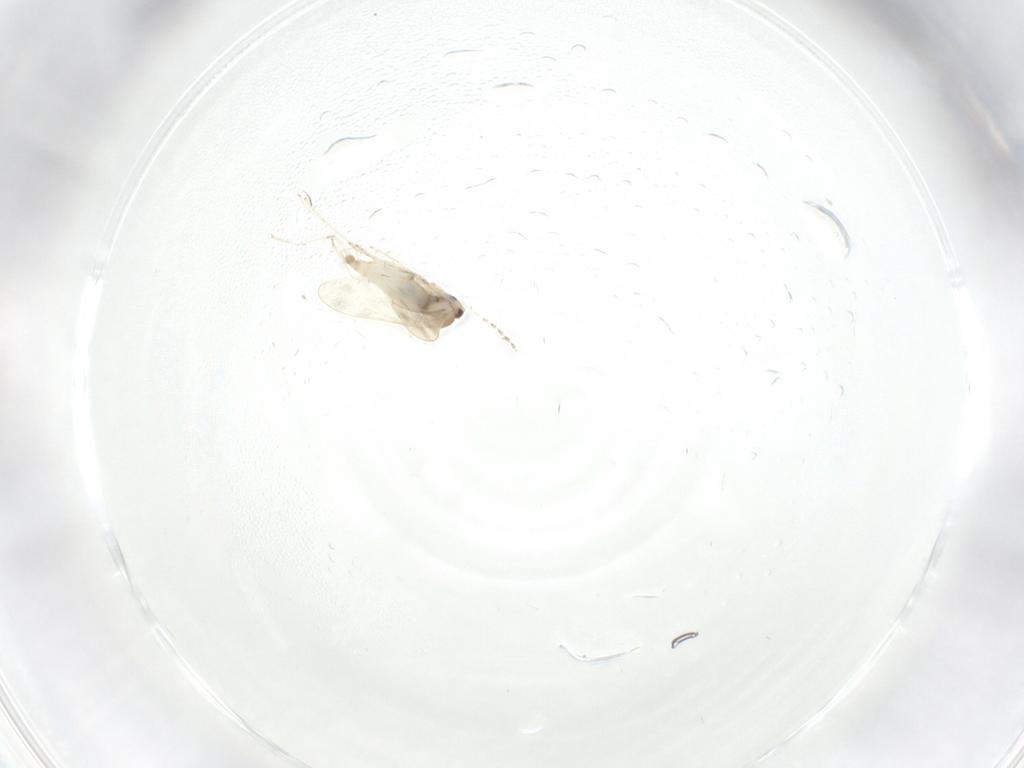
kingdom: Animalia
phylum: Arthropoda
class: Insecta
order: Diptera
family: Cecidomyiidae
